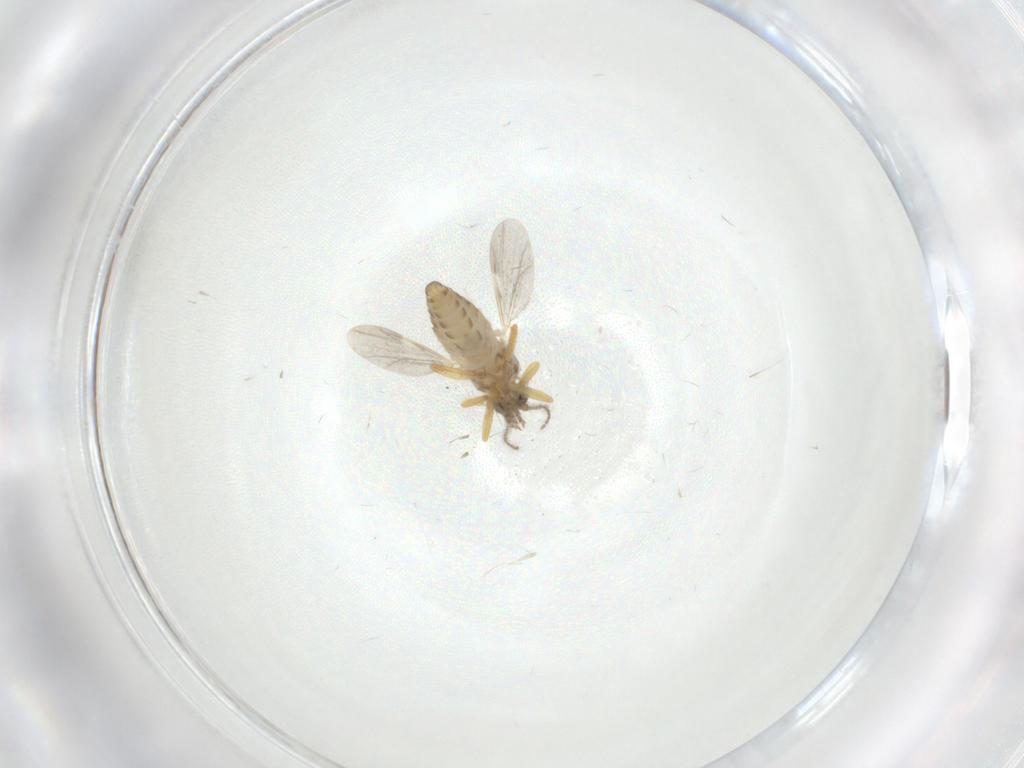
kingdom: Animalia
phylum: Arthropoda
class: Insecta
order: Diptera
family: Ceratopogonidae
